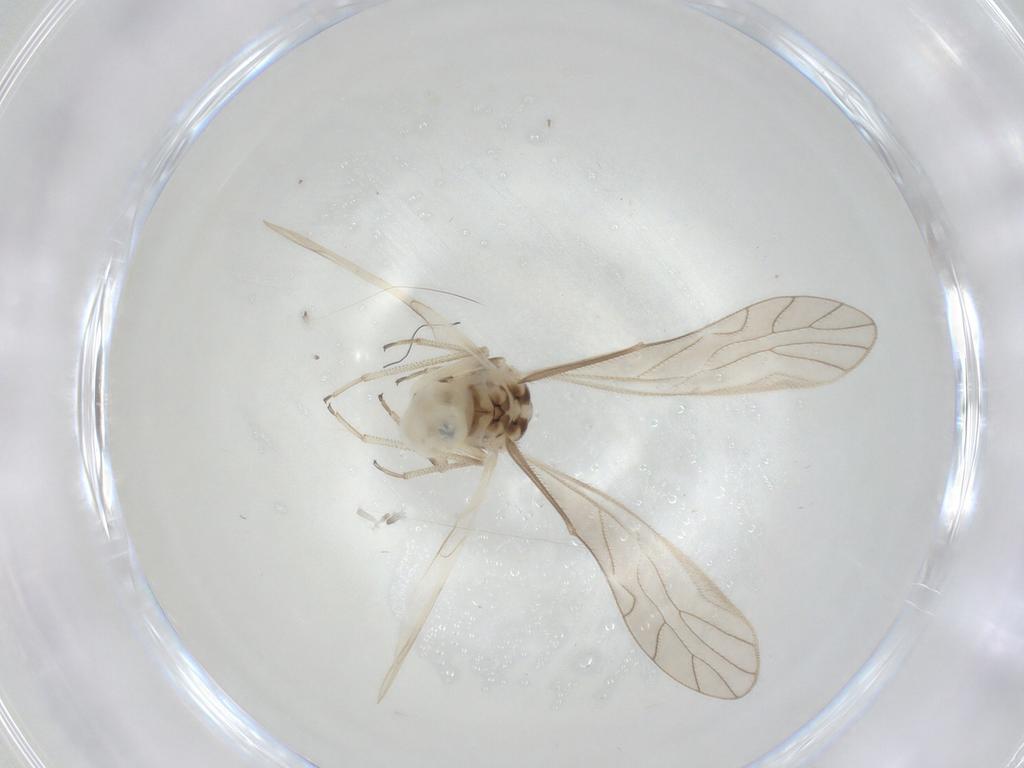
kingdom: Animalia
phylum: Arthropoda
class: Insecta
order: Psocodea
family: Caeciliusidae
